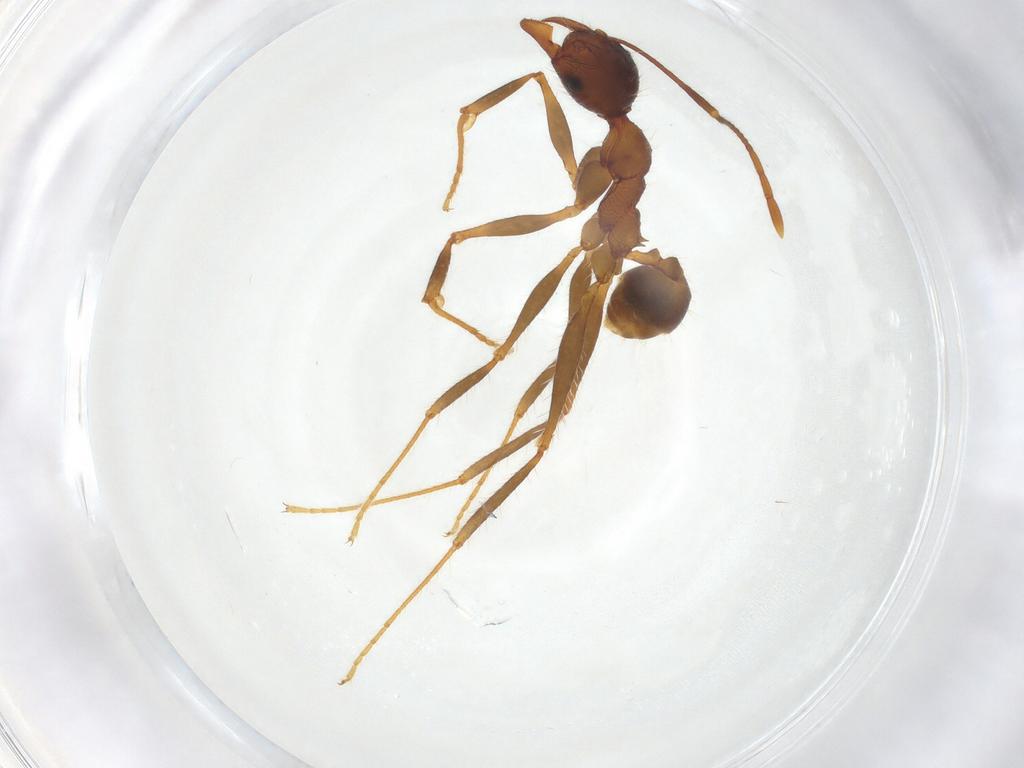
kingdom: Animalia
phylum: Arthropoda
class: Insecta
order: Hymenoptera
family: Formicidae
